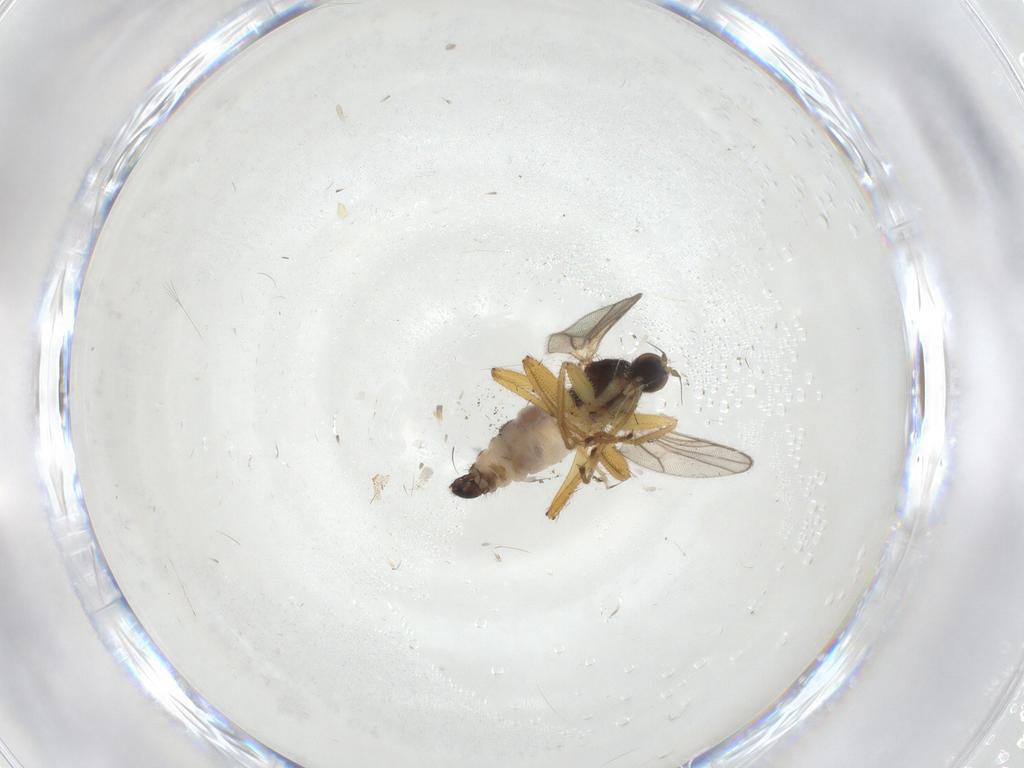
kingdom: Animalia
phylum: Arthropoda
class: Insecta
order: Diptera
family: Hybotidae
